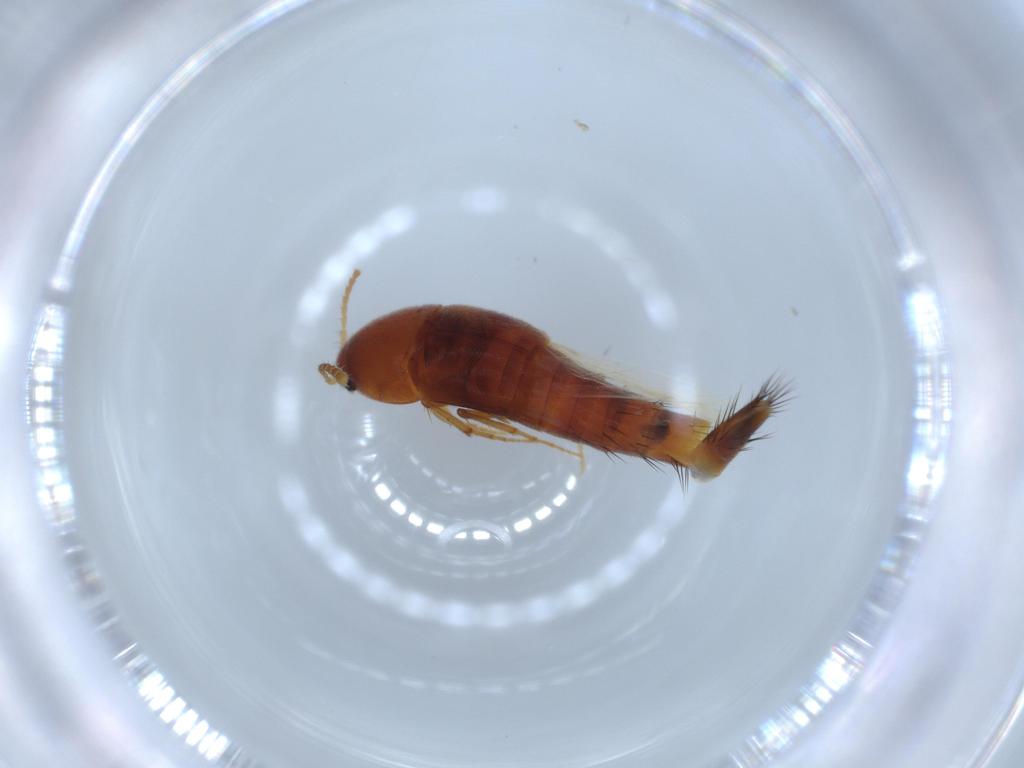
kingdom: Animalia
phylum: Arthropoda
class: Insecta
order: Coleoptera
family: Staphylinidae
